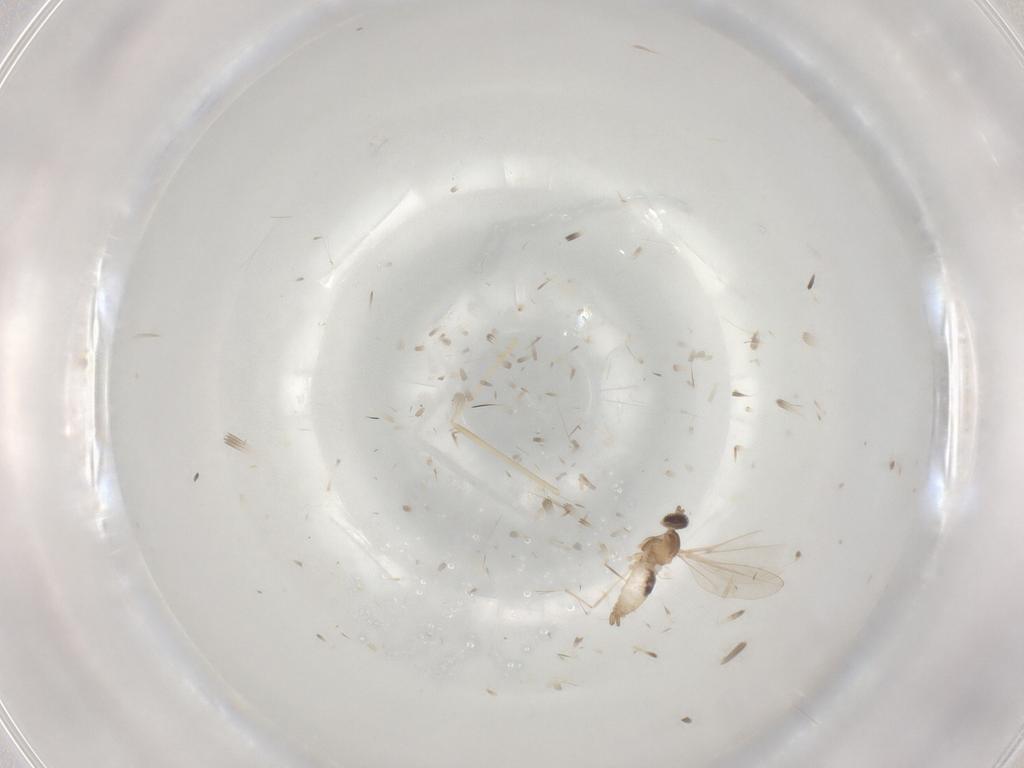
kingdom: Animalia
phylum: Arthropoda
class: Insecta
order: Diptera
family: Cecidomyiidae
